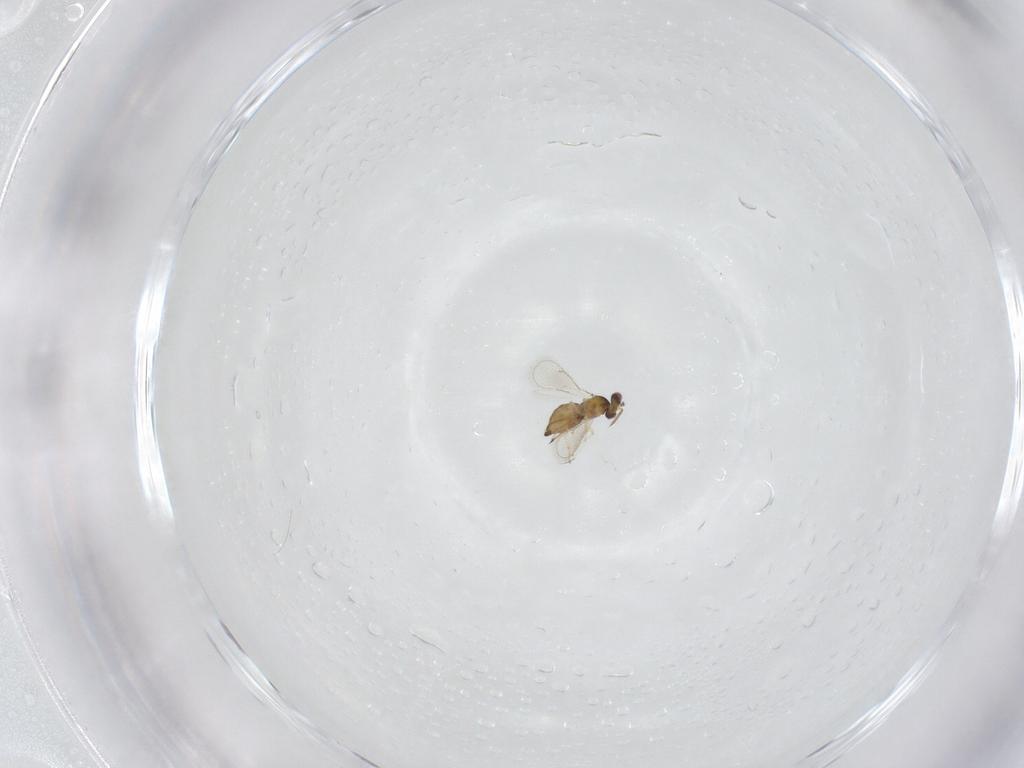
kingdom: Animalia
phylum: Arthropoda
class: Insecta
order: Hymenoptera
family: Eulophidae
